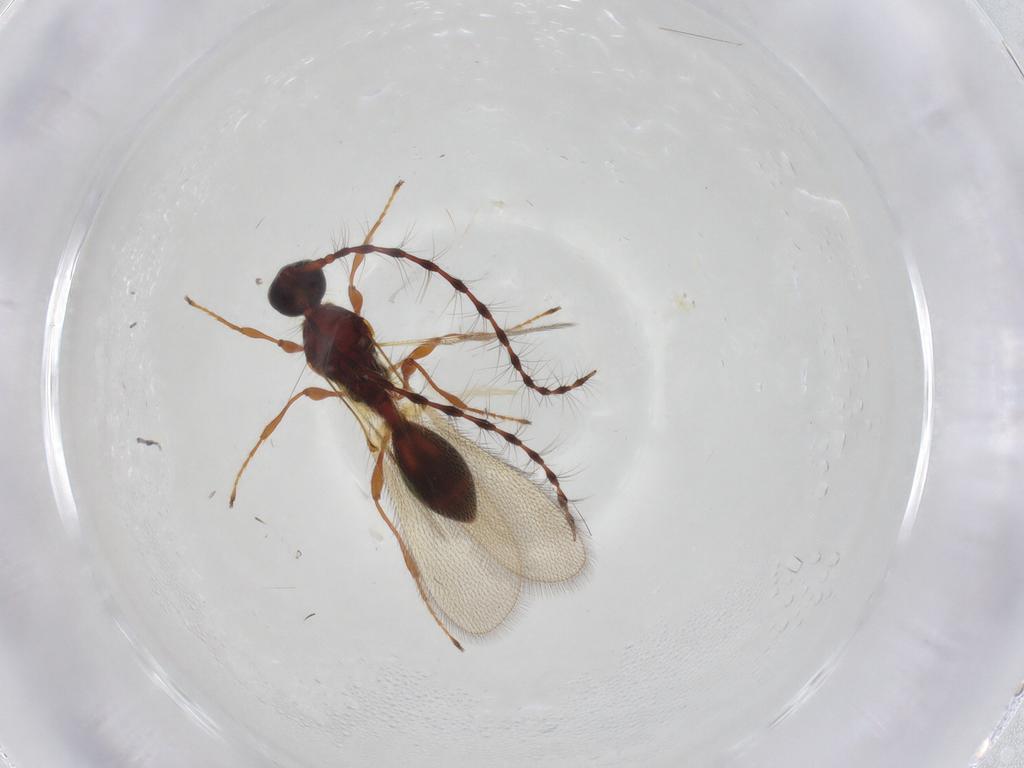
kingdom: Animalia
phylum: Arthropoda
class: Insecta
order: Hymenoptera
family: Diapriidae
